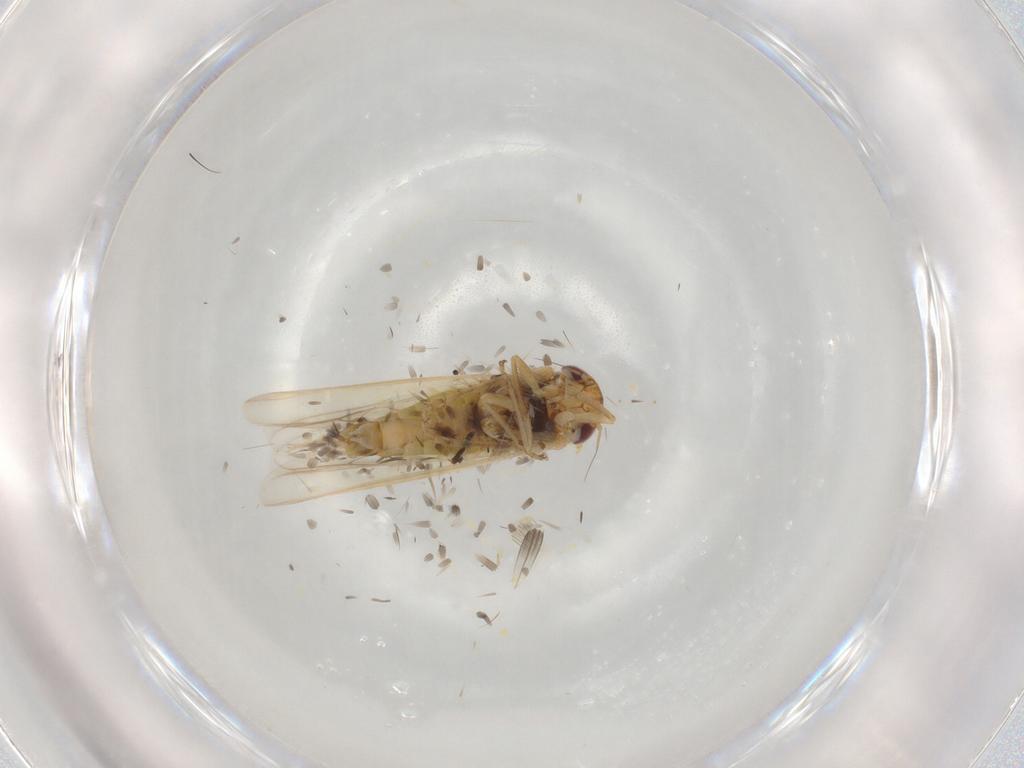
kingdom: Animalia
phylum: Arthropoda
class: Insecta
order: Hemiptera
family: Cicadellidae
